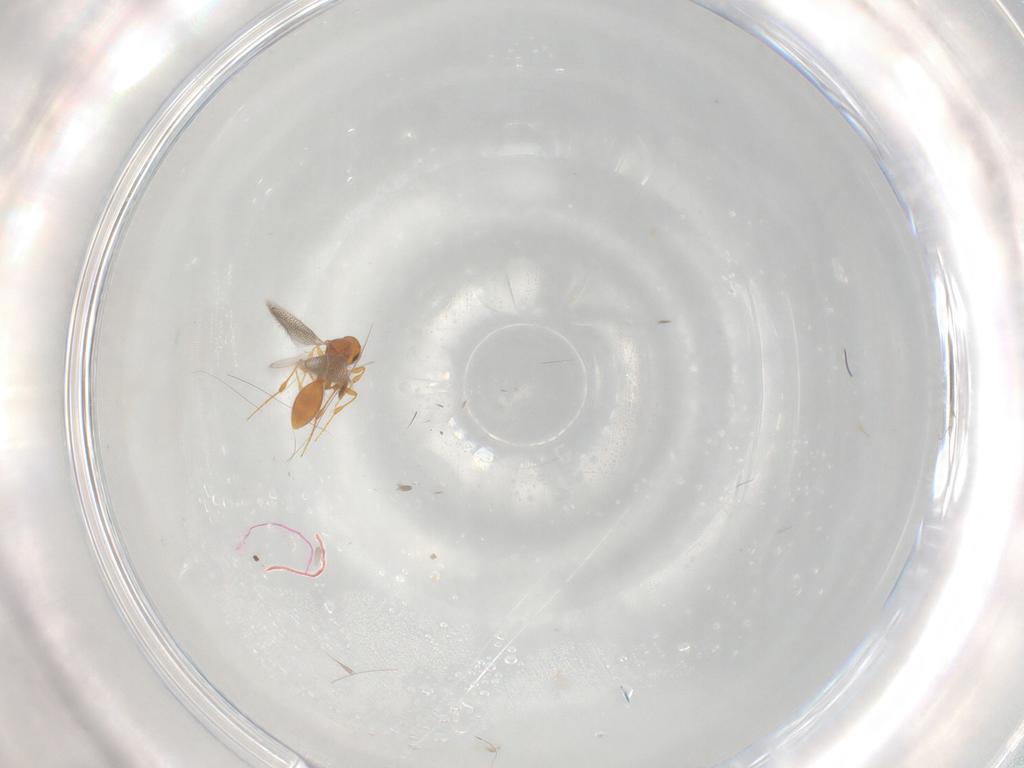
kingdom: Animalia
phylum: Arthropoda
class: Insecta
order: Hymenoptera
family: Platygastridae
